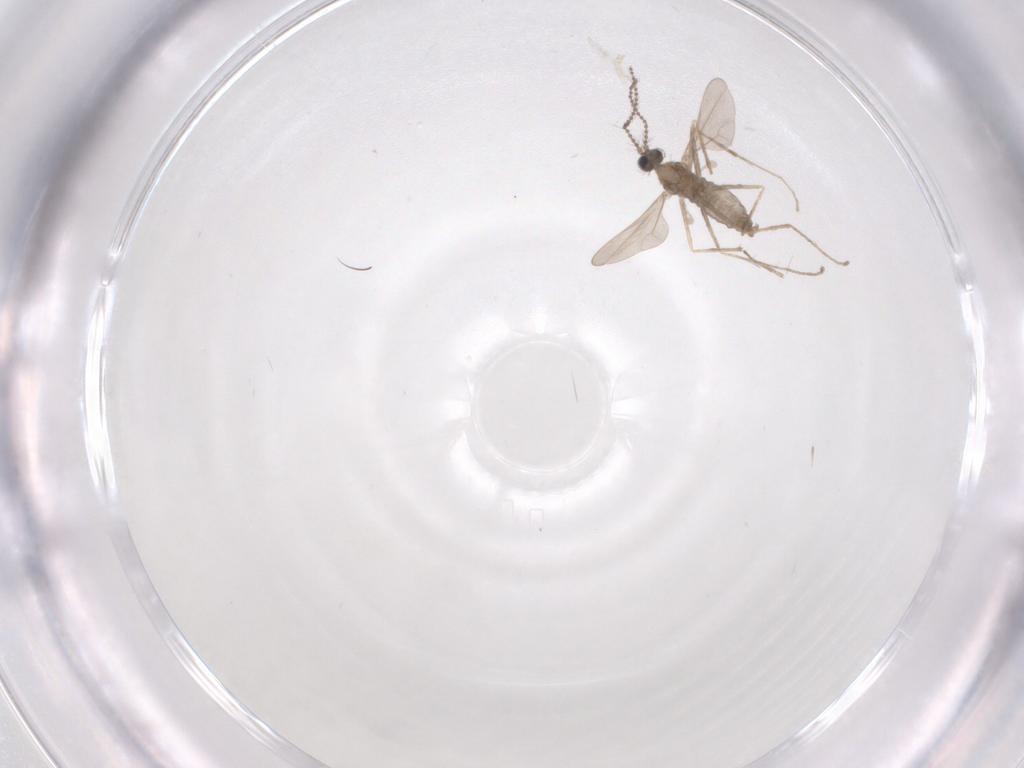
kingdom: Animalia
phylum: Arthropoda
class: Insecta
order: Diptera
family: Cecidomyiidae
